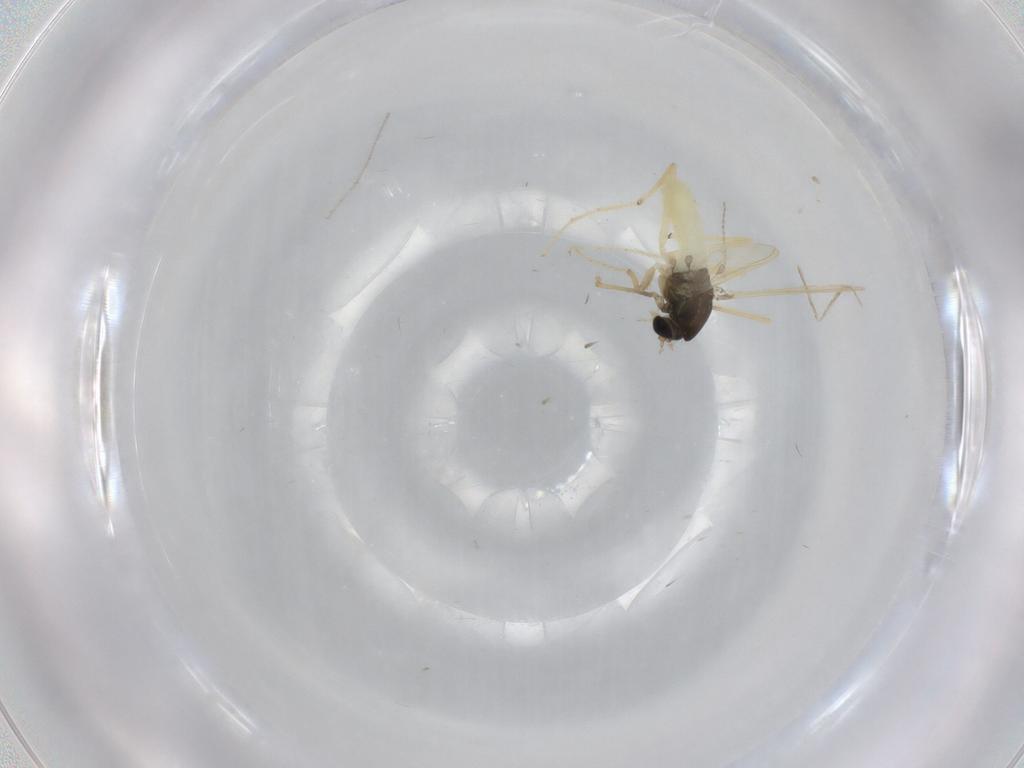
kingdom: Animalia
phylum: Arthropoda
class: Insecta
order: Diptera
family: Chironomidae
